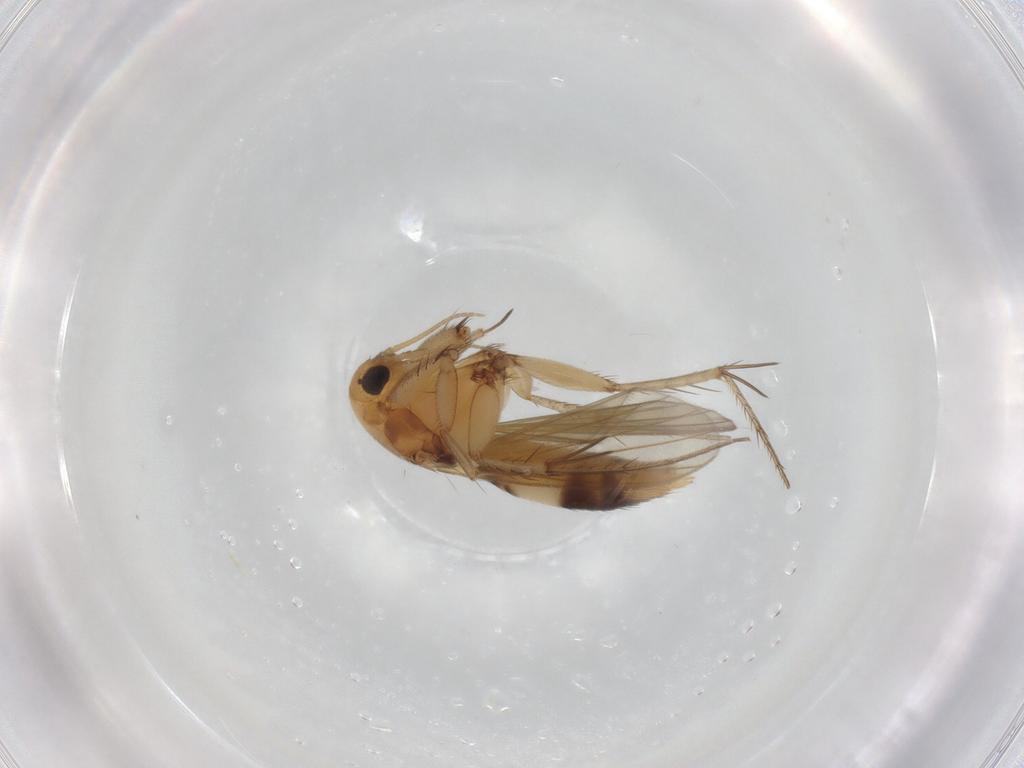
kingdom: Animalia
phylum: Arthropoda
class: Insecta
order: Diptera
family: Mycetophilidae
